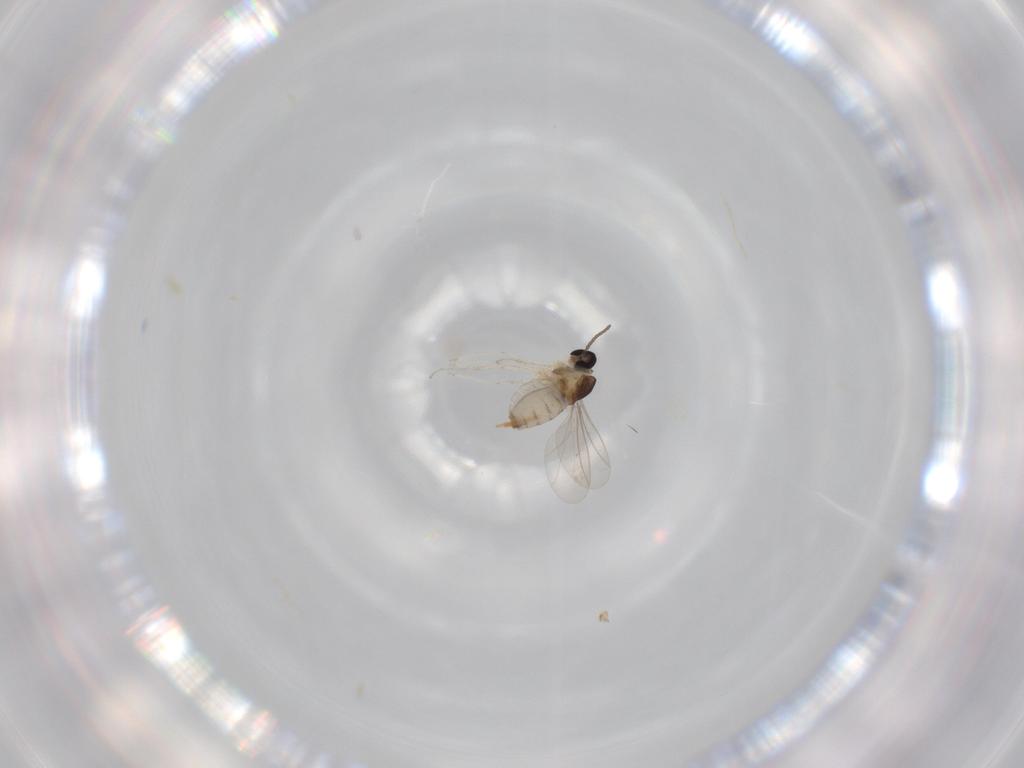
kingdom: Animalia
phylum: Arthropoda
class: Insecta
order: Diptera
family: Cecidomyiidae
